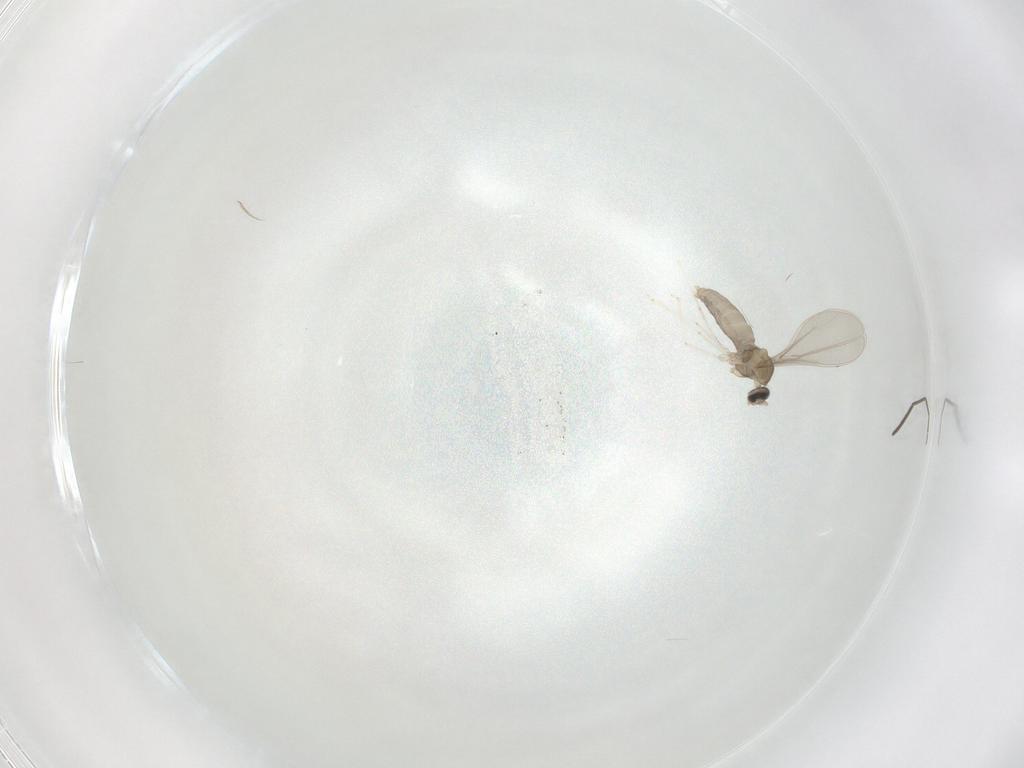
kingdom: Animalia
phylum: Arthropoda
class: Insecta
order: Diptera
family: Cecidomyiidae
